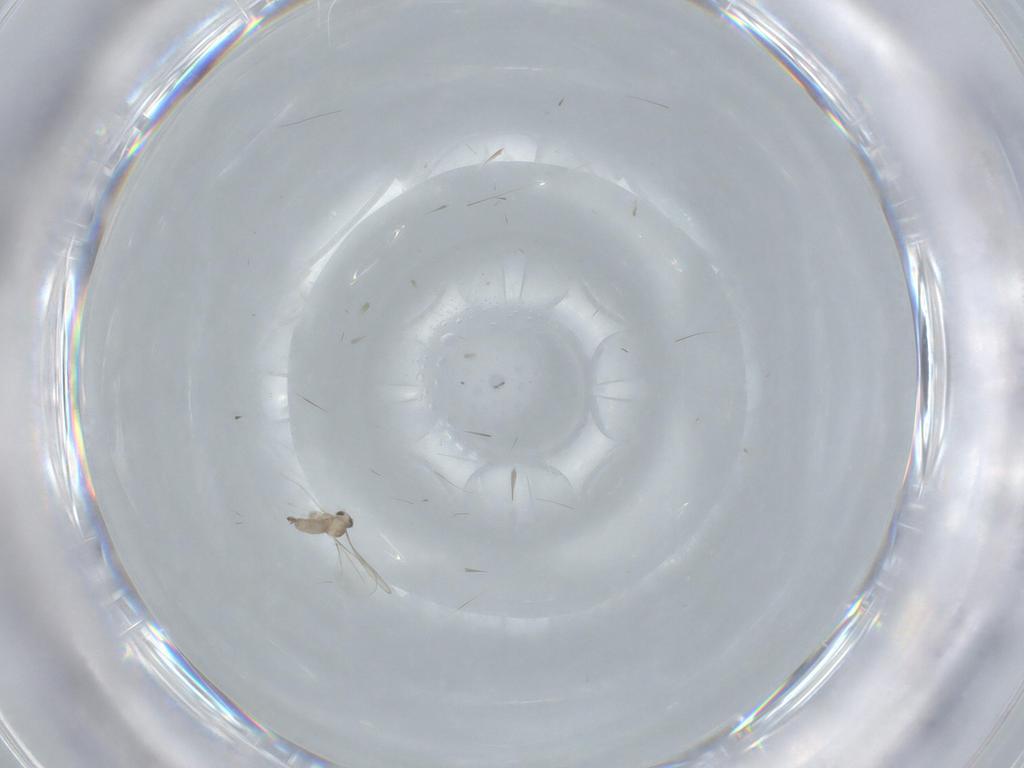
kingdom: Animalia
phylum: Arthropoda
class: Insecta
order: Diptera
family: Cecidomyiidae
